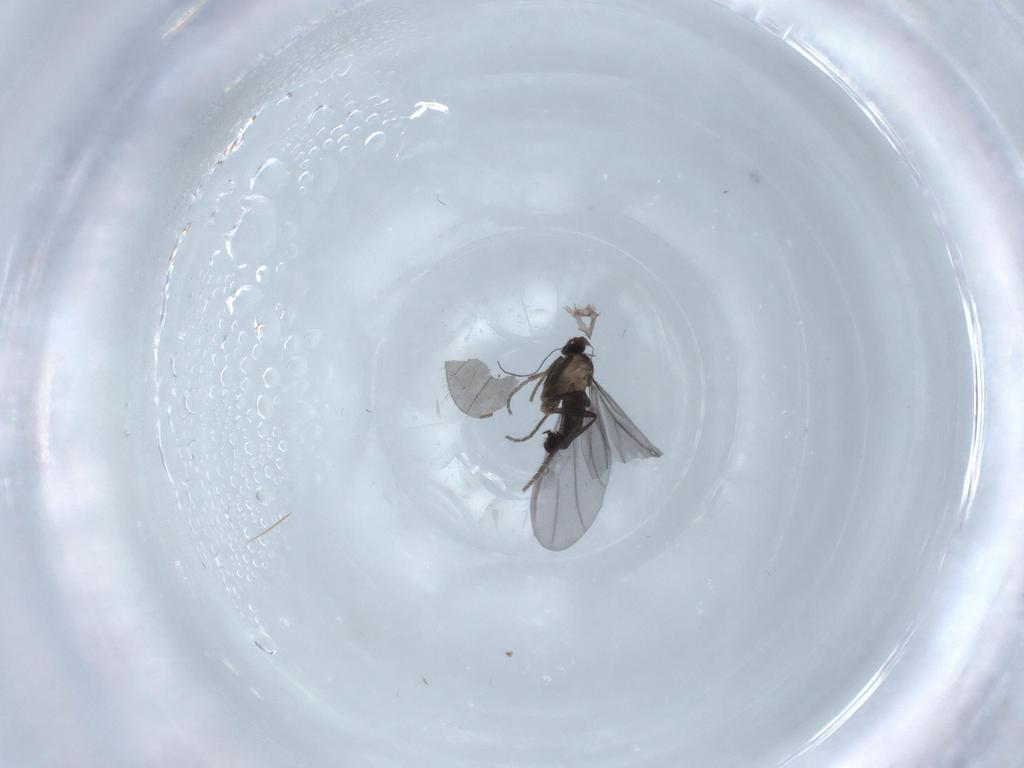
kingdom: Animalia
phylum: Arthropoda
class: Insecta
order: Diptera
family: Phoridae
